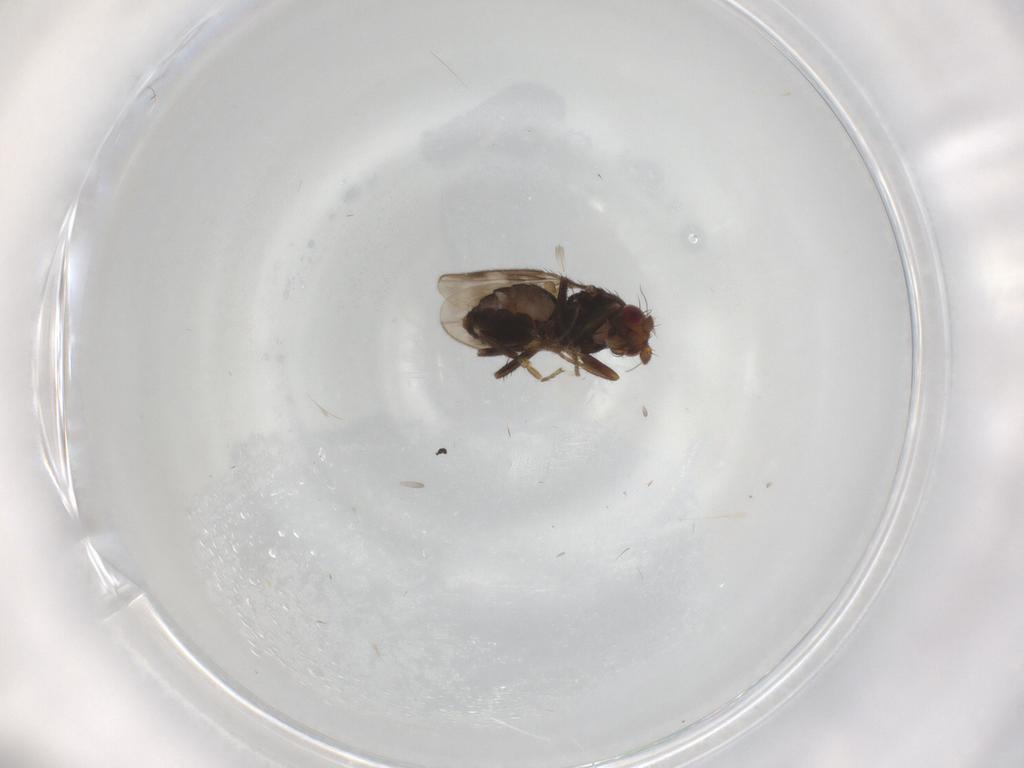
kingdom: Animalia
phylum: Arthropoda
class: Insecta
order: Diptera
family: Sphaeroceridae
